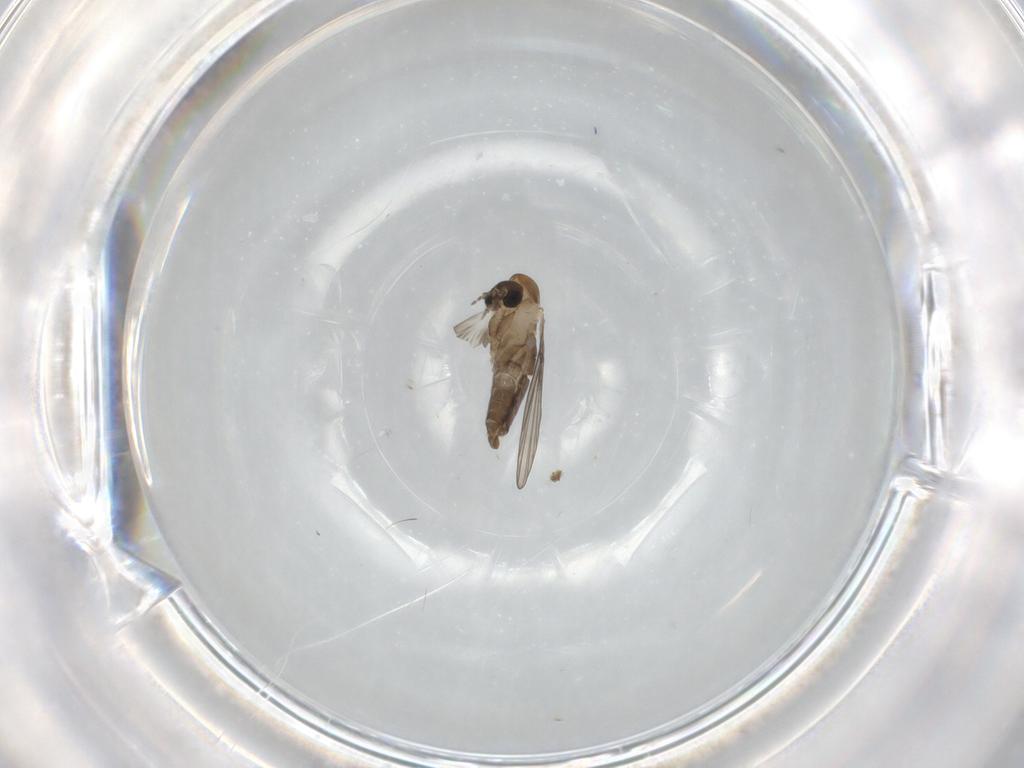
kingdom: Animalia
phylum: Arthropoda
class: Insecta
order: Diptera
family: Psychodidae
